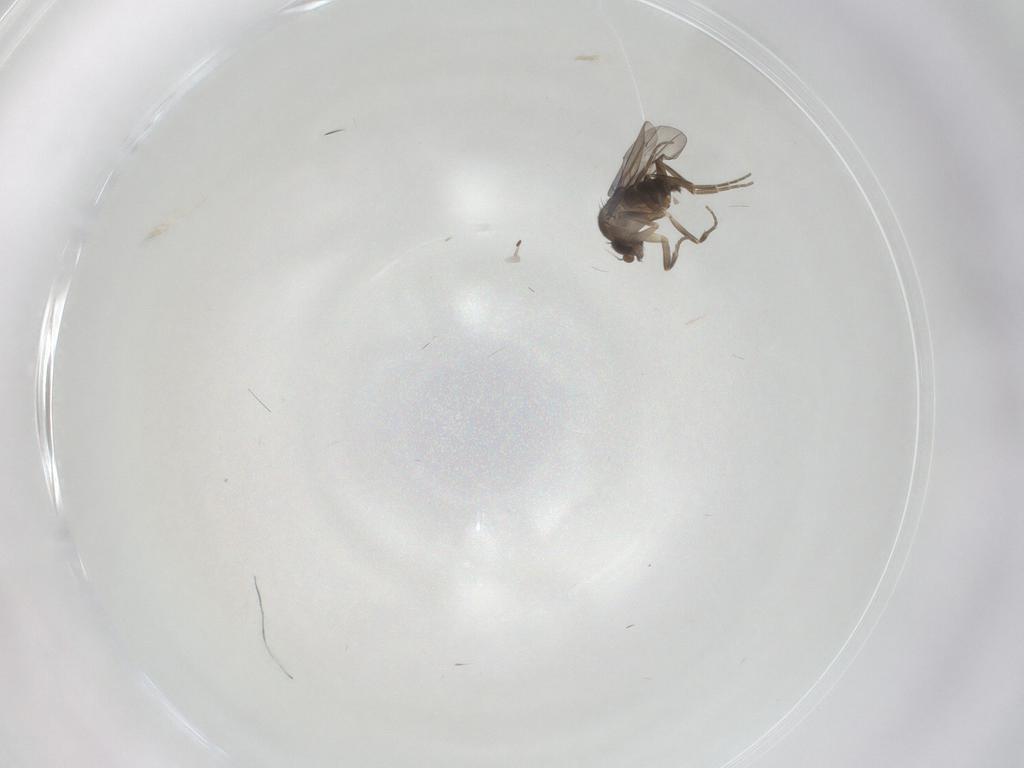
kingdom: Animalia
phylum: Arthropoda
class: Insecta
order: Diptera
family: Phoridae
